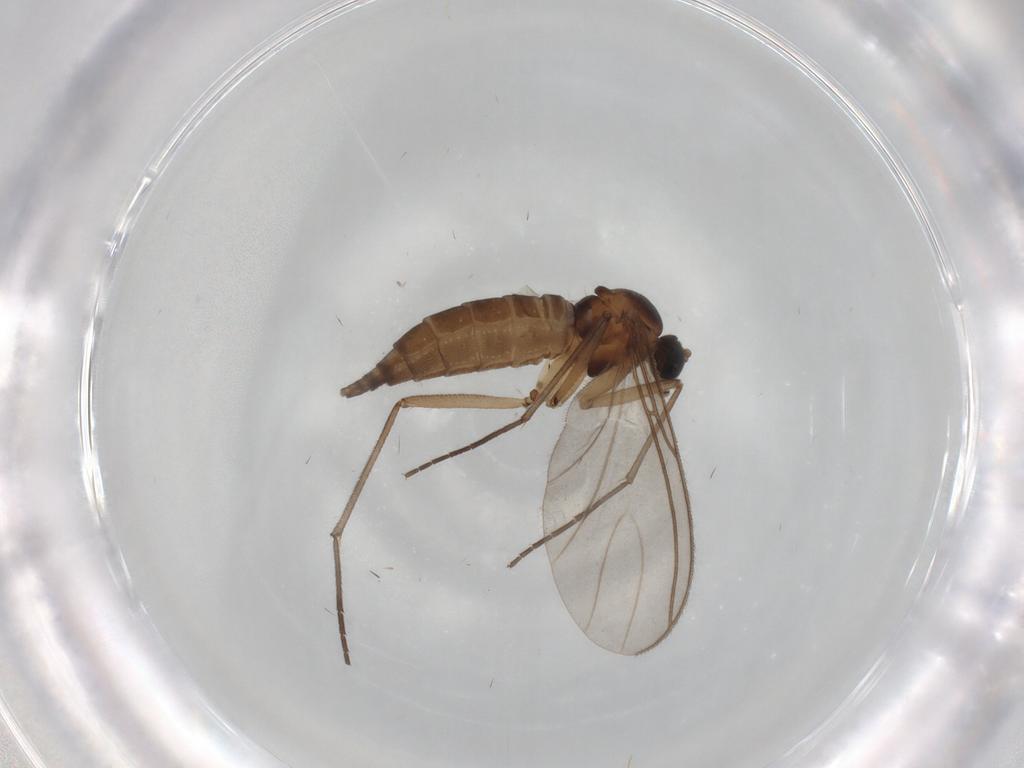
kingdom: Animalia
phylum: Arthropoda
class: Insecta
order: Diptera
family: Sciaridae
